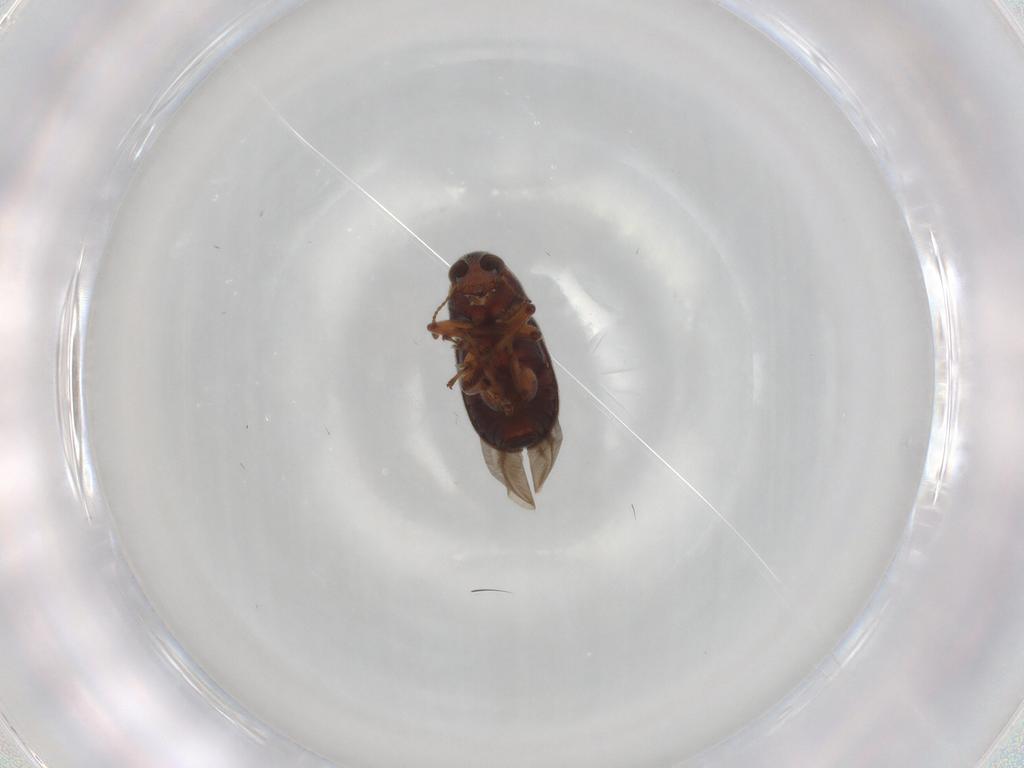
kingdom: Animalia
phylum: Arthropoda
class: Insecta
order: Coleoptera
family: Anthribidae
